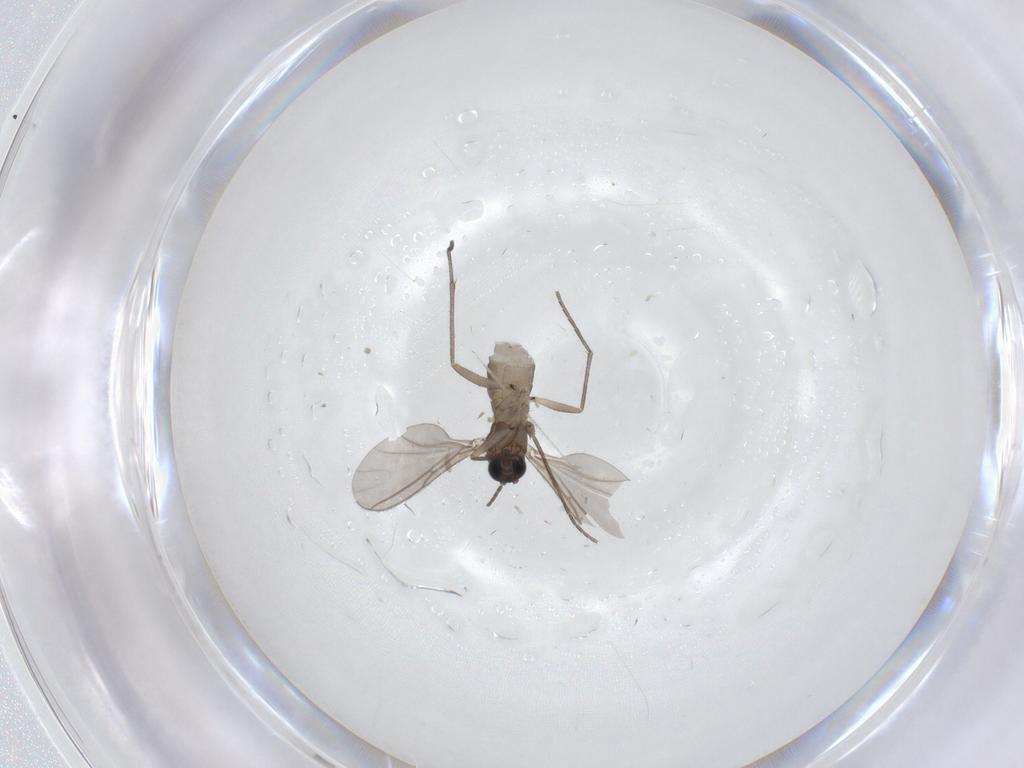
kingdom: Animalia
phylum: Arthropoda
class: Insecta
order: Diptera
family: Sciaridae
